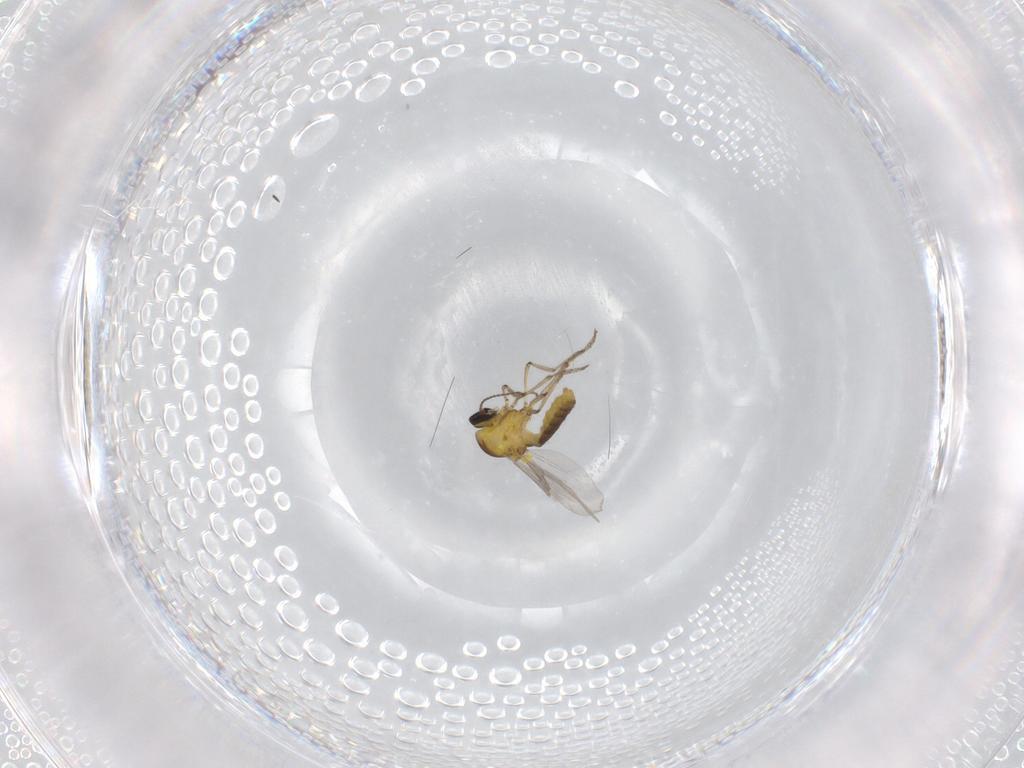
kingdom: Animalia
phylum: Arthropoda
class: Insecta
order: Diptera
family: Ceratopogonidae
